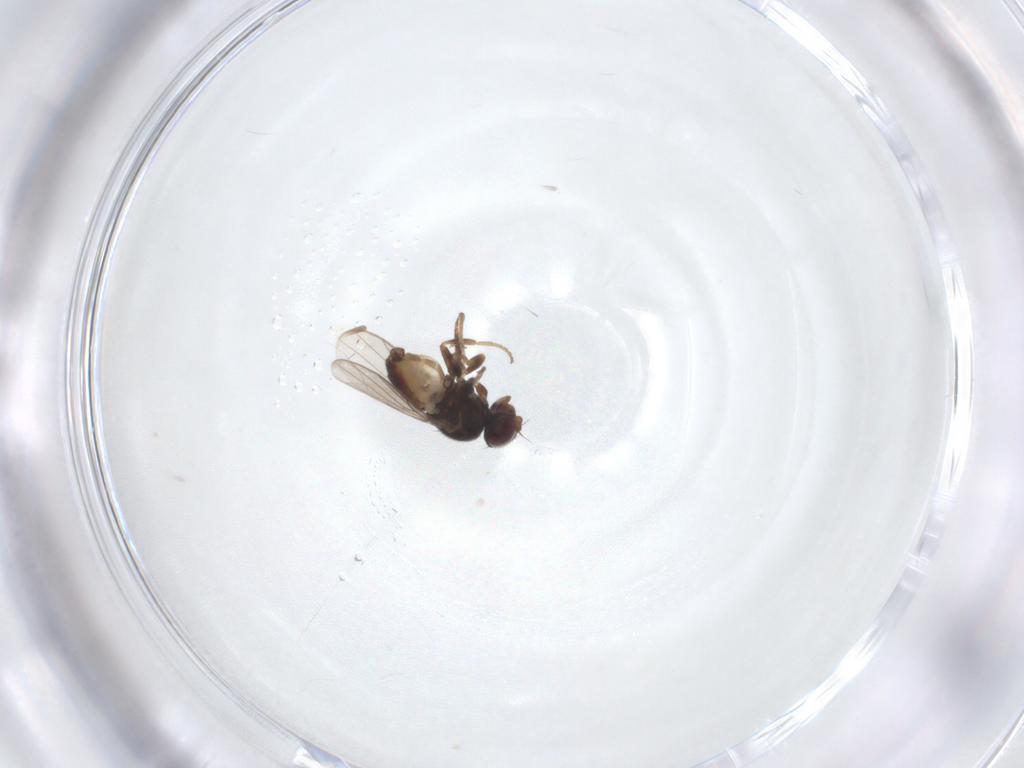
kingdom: Animalia
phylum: Arthropoda
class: Insecta
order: Diptera
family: Chloropidae
